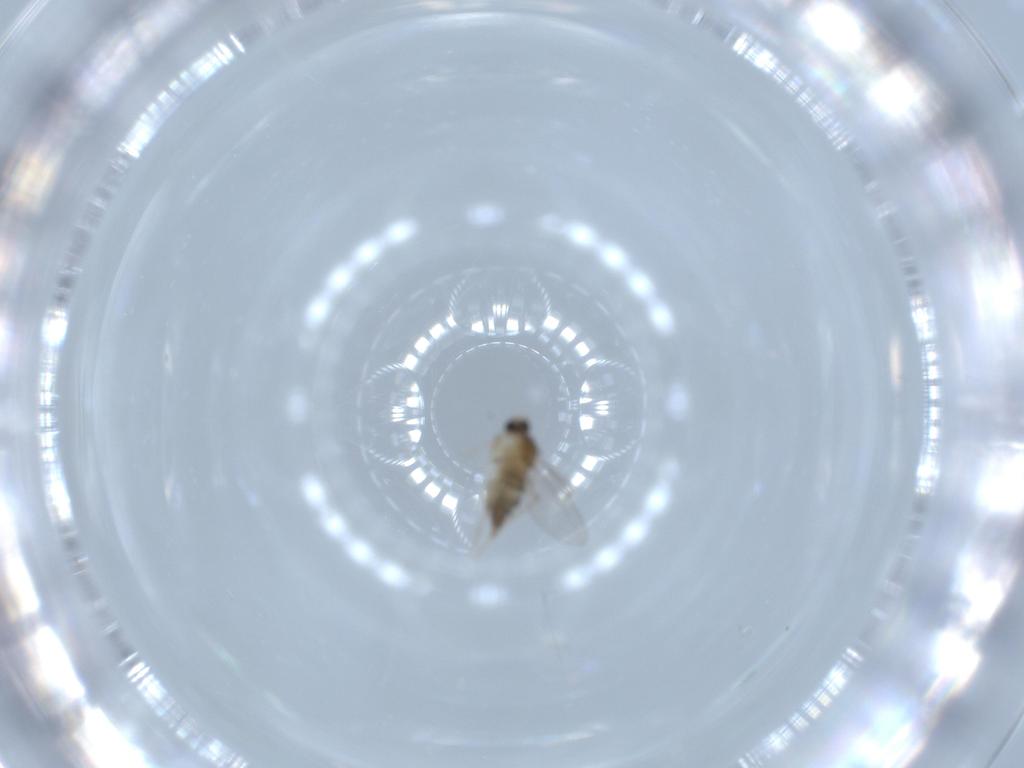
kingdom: Animalia
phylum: Arthropoda
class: Insecta
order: Diptera
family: Cecidomyiidae
